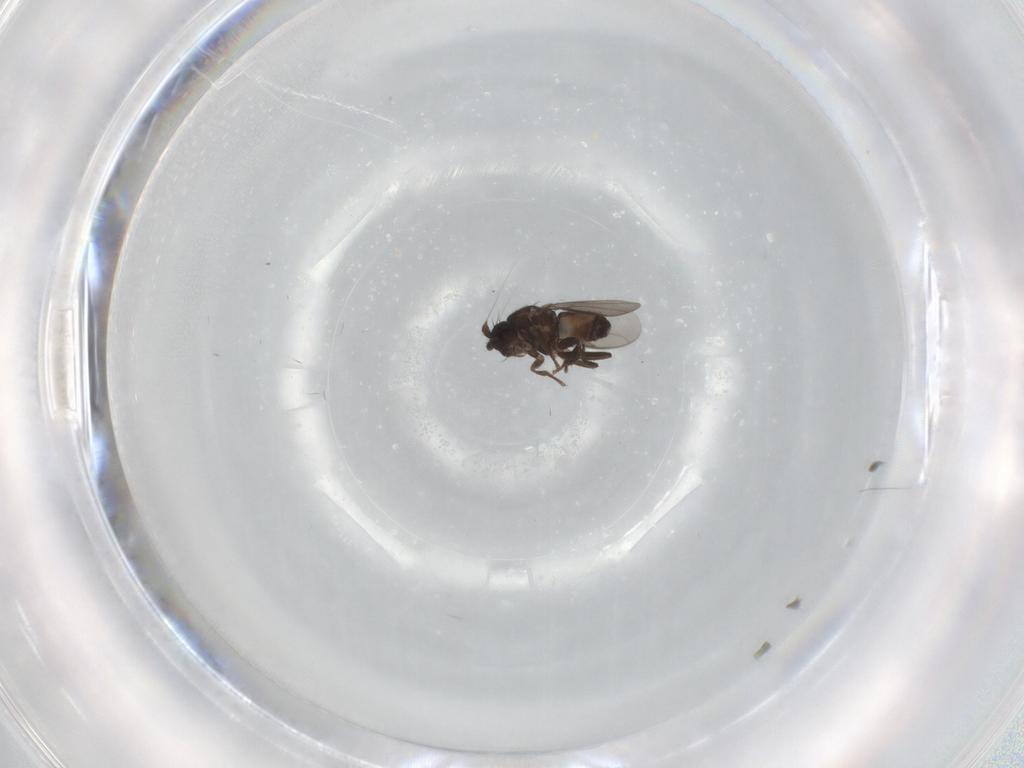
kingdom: Animalia
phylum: Arthropoda
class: Insecta
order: Diptera
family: Sphaeroceridae
